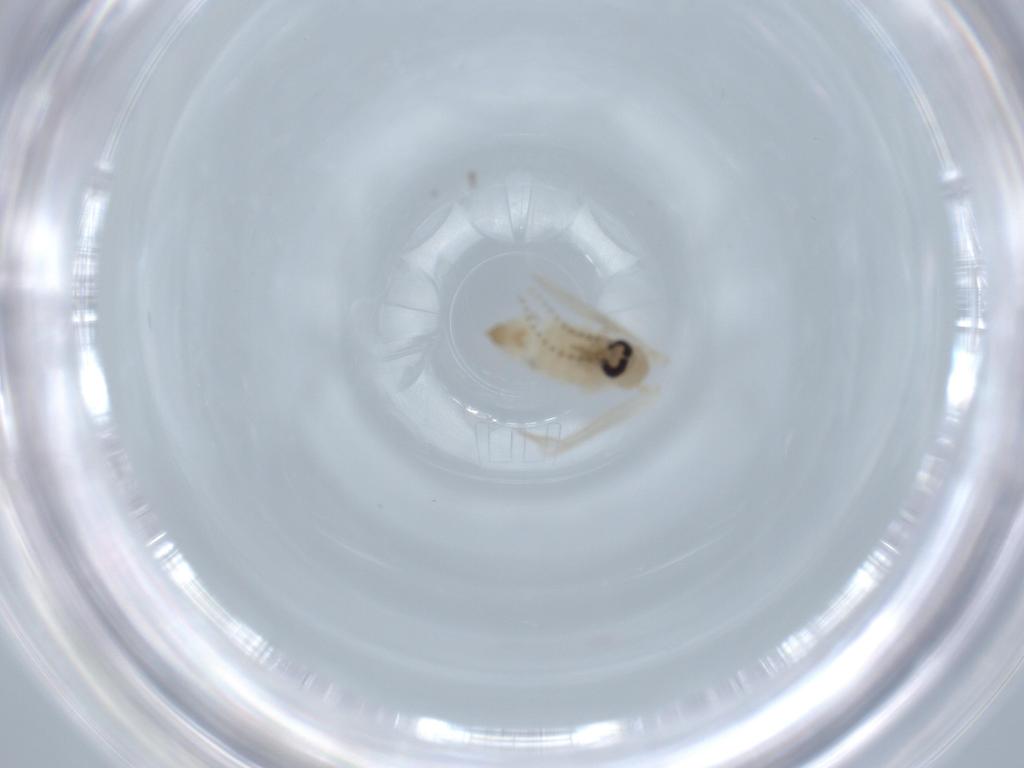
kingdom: Animalia
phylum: Arthropoda
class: Insecta
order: Diptera
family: Psychodidae
